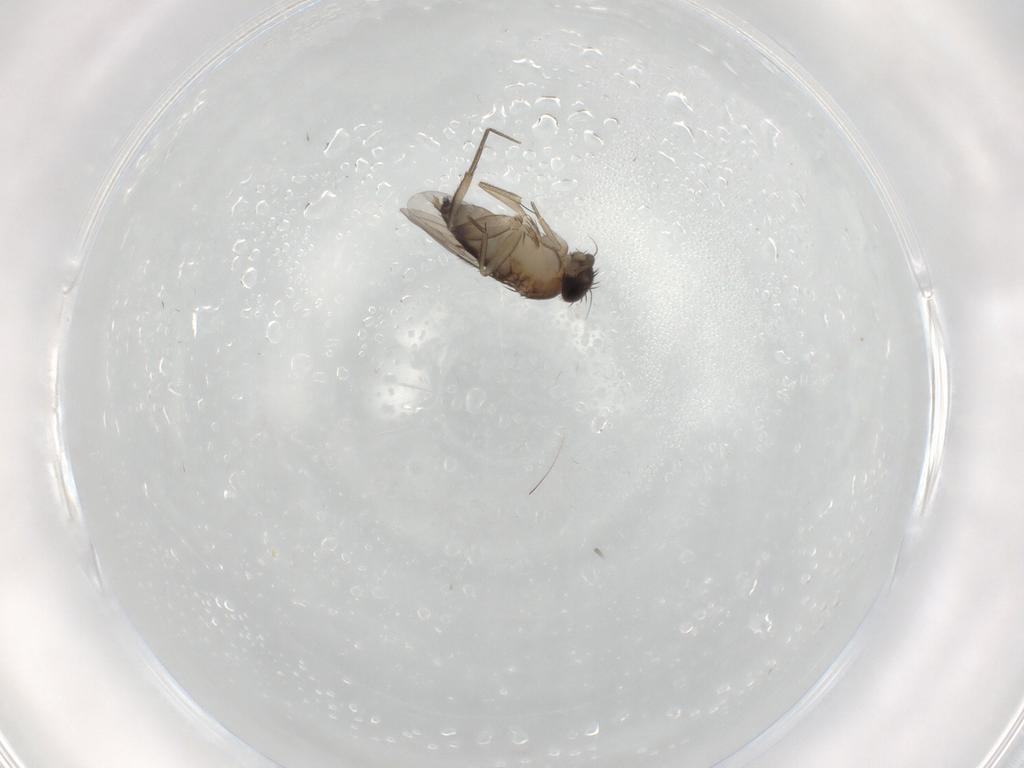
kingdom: Animalia
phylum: Arthropoda
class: Insecta
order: Diptera
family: Phoridae
